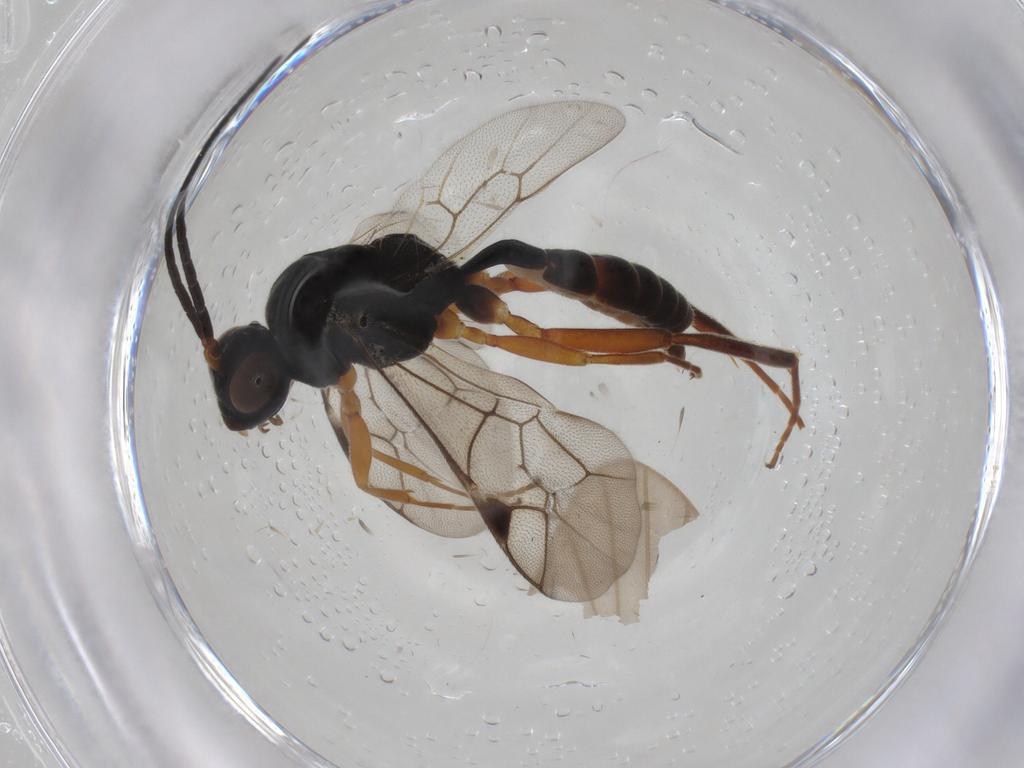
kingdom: Animalia
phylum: Arthropoda
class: Insecta
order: Hymenoptera
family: Ichneumonidae
